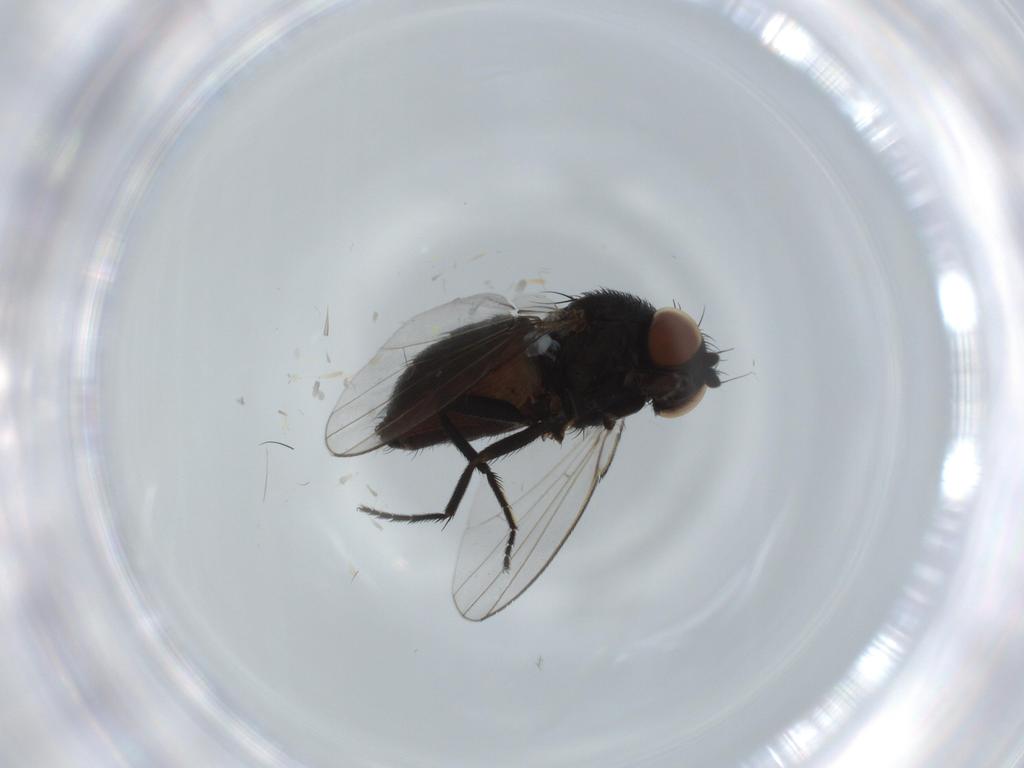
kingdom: Animalia
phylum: Arthropoda
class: Insecta
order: Diptera
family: Milichiidae
